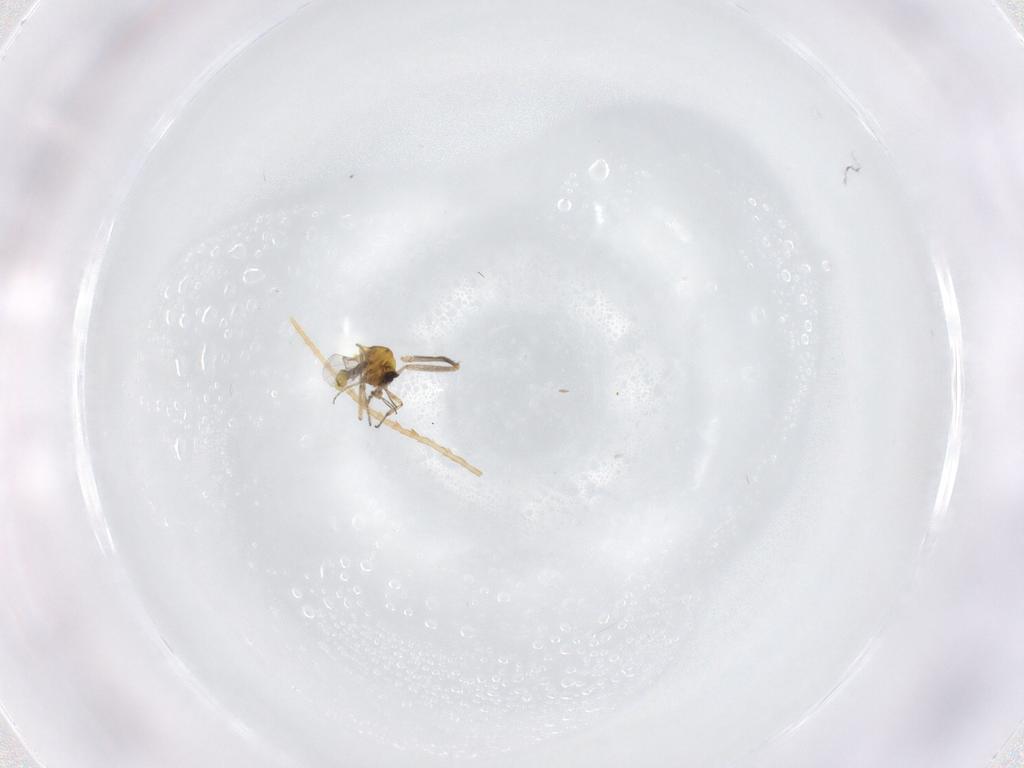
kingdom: Animalia
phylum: Arthropoda
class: Insecta
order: Diptera
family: Ceratopogonidae
